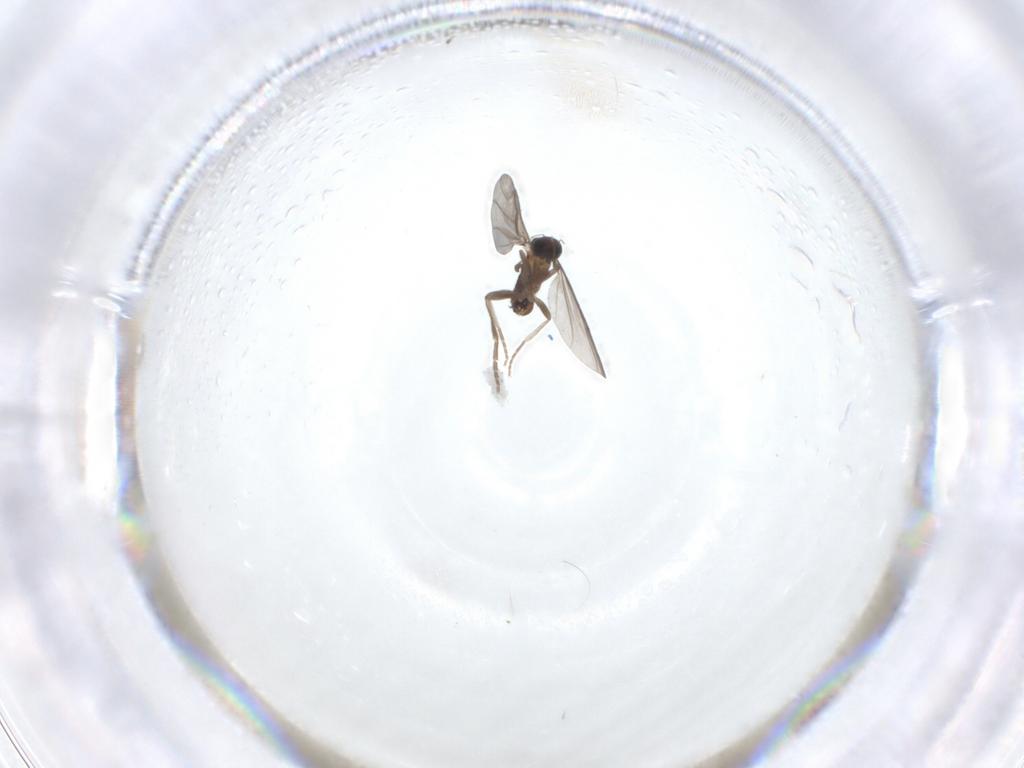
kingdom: Animalia
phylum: Arthropoda
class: Insecta
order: Diptera
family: Phoridae
